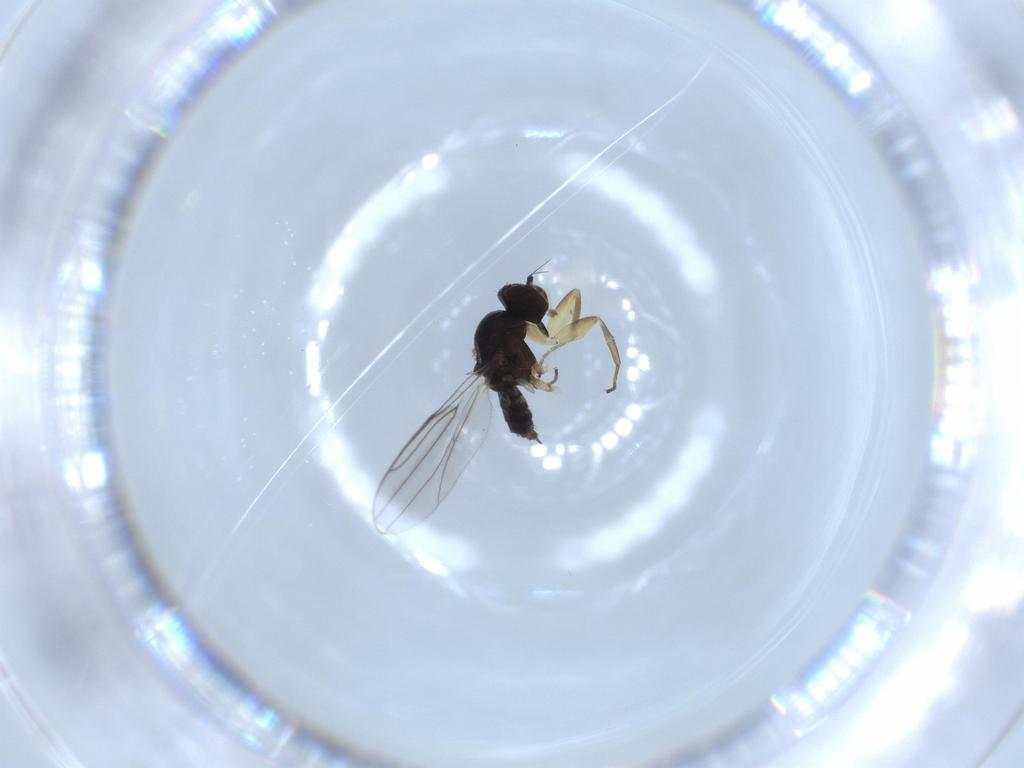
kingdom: Animalia
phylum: Arthropoda
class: Insecta
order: Diptera
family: Hybotidae
